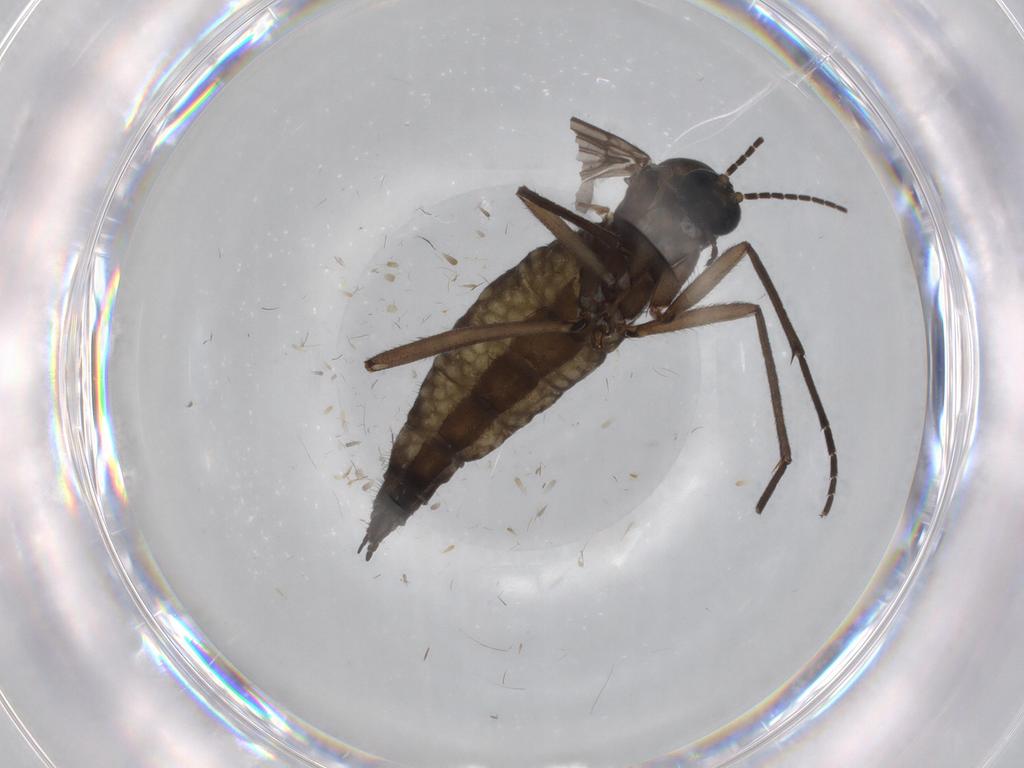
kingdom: Animalia
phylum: Arthropoda
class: Insecta
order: Diptera
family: Sciaridae
